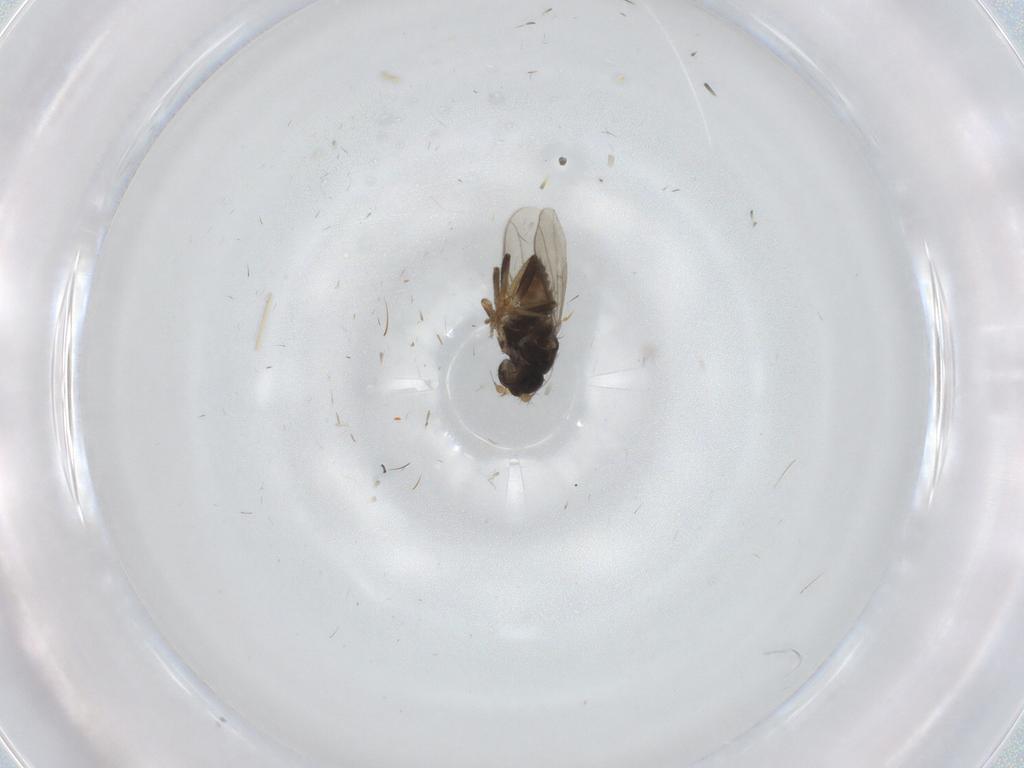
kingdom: Animalia
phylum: Arthropoda
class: Insecta
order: Diptera
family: Sphaeroceridae
